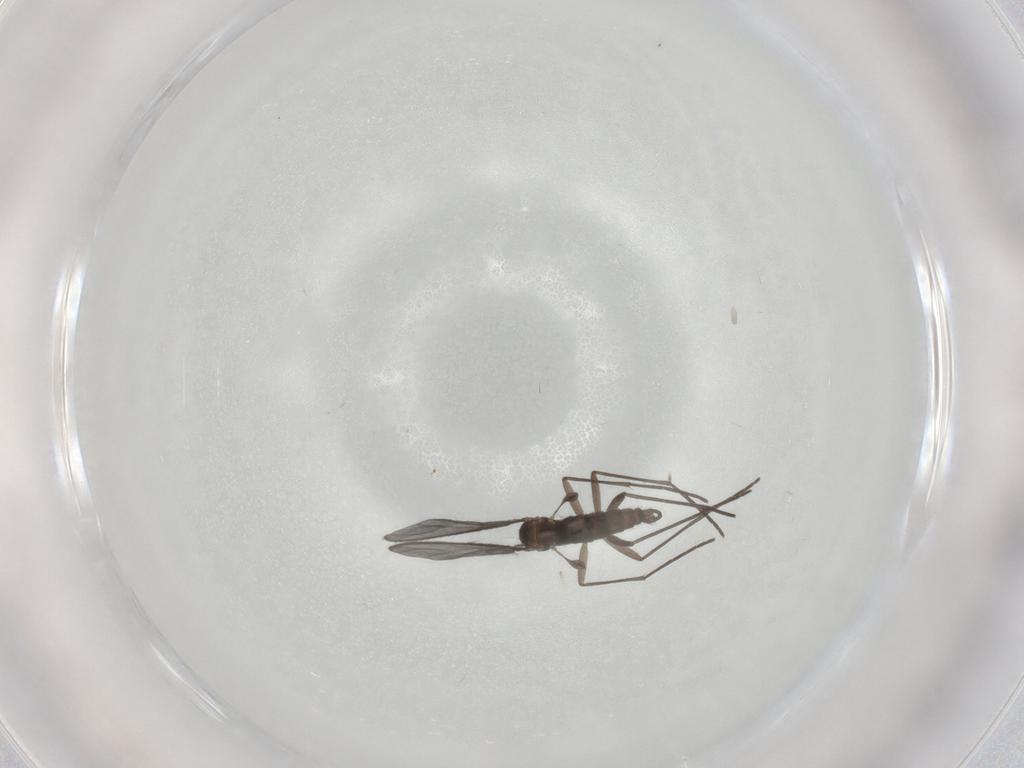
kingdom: Animalia
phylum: Arthropoda
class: Insecta
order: Diptera
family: Sciaridae
